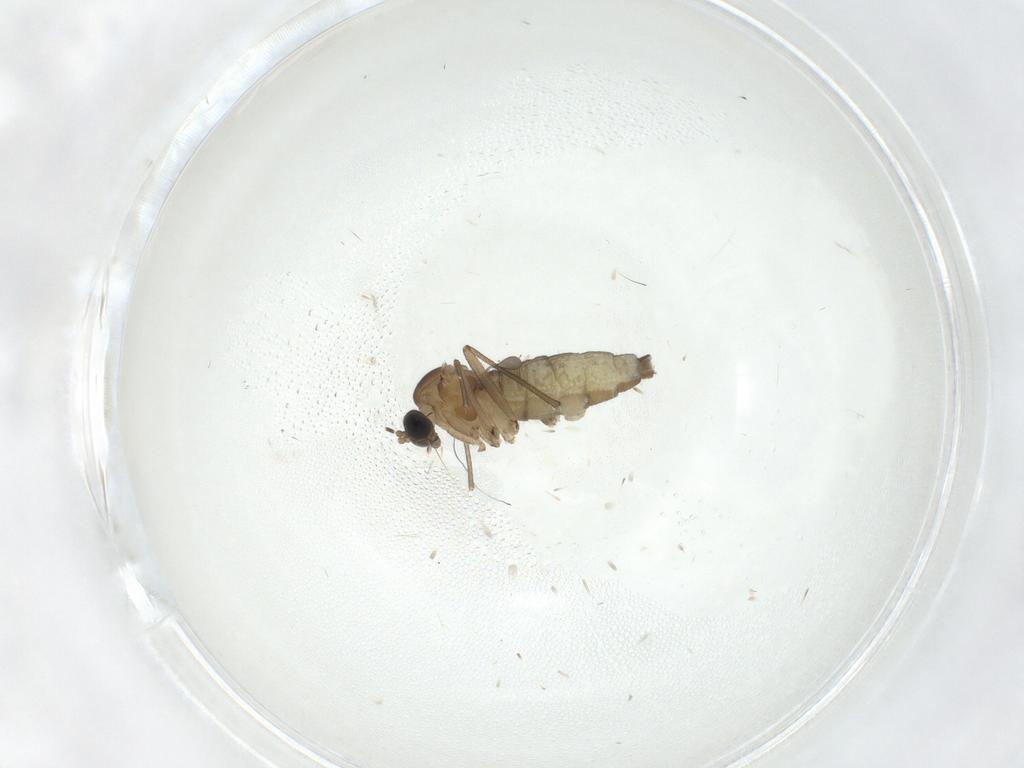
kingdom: Animalia
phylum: Arthropoda
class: Insecta
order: Diptera
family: Sciaridae
